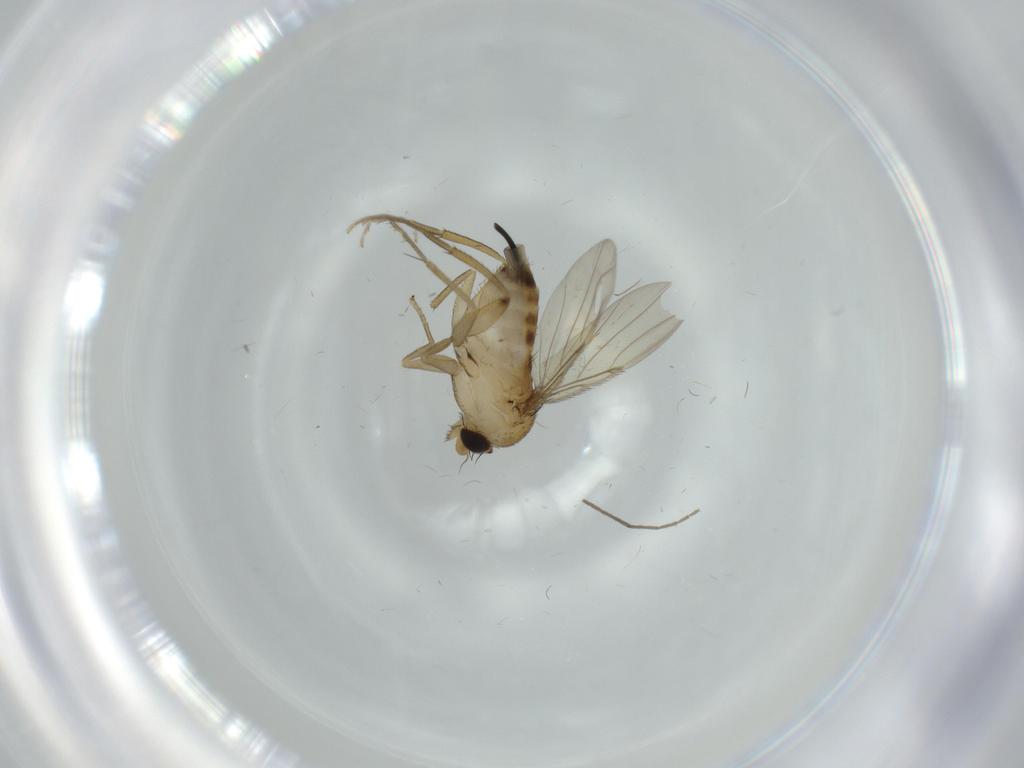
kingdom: Animalia
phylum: Arthropoda
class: Insecta
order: Diptera
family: Phoridae
